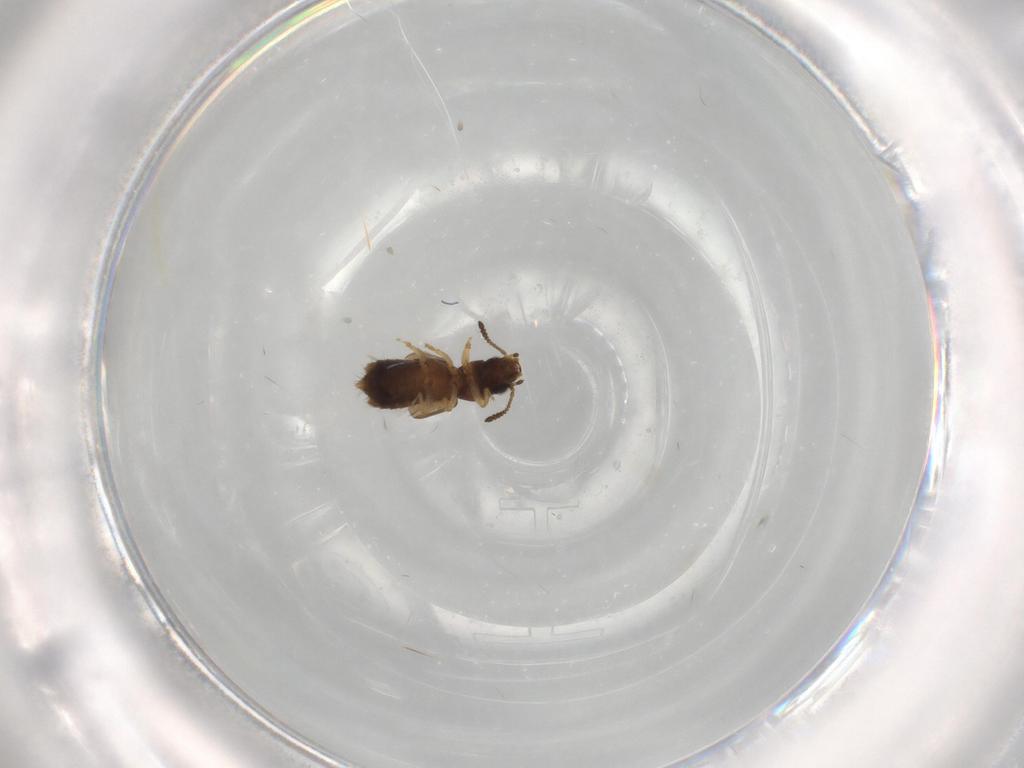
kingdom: Animalia
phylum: Arthropoda
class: Insecta
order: Coleoptera
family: Staphylinidae
